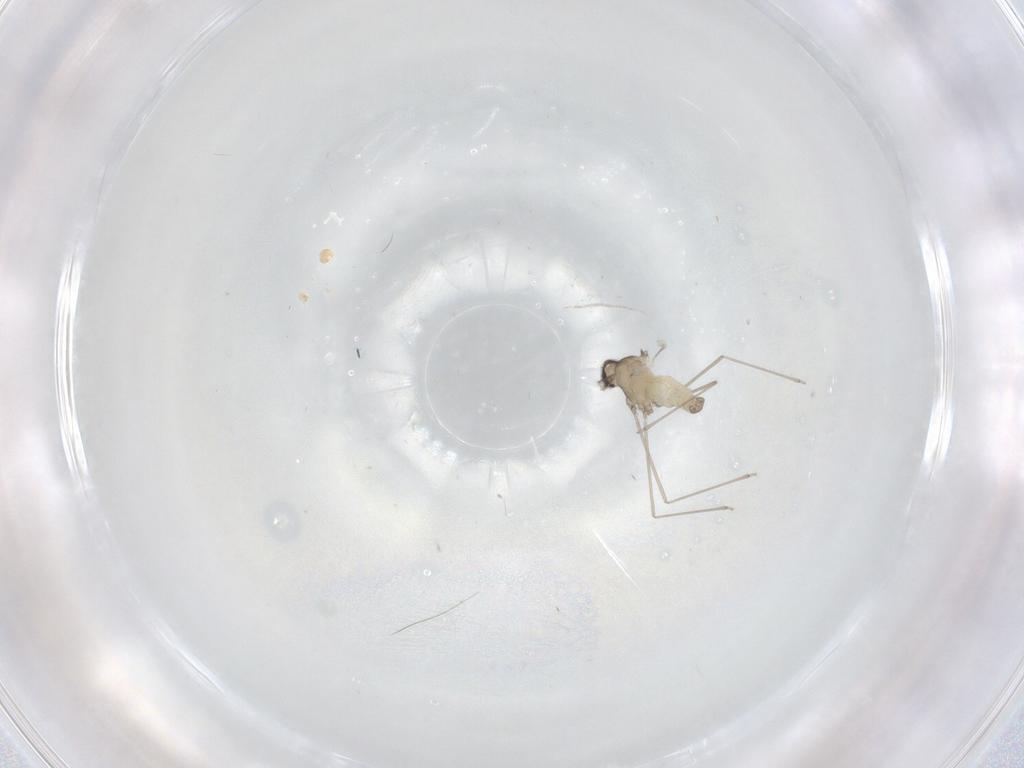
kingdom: Animalia
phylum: Arthropoda
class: Insecta
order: Diptera
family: Cecidomyiidae
